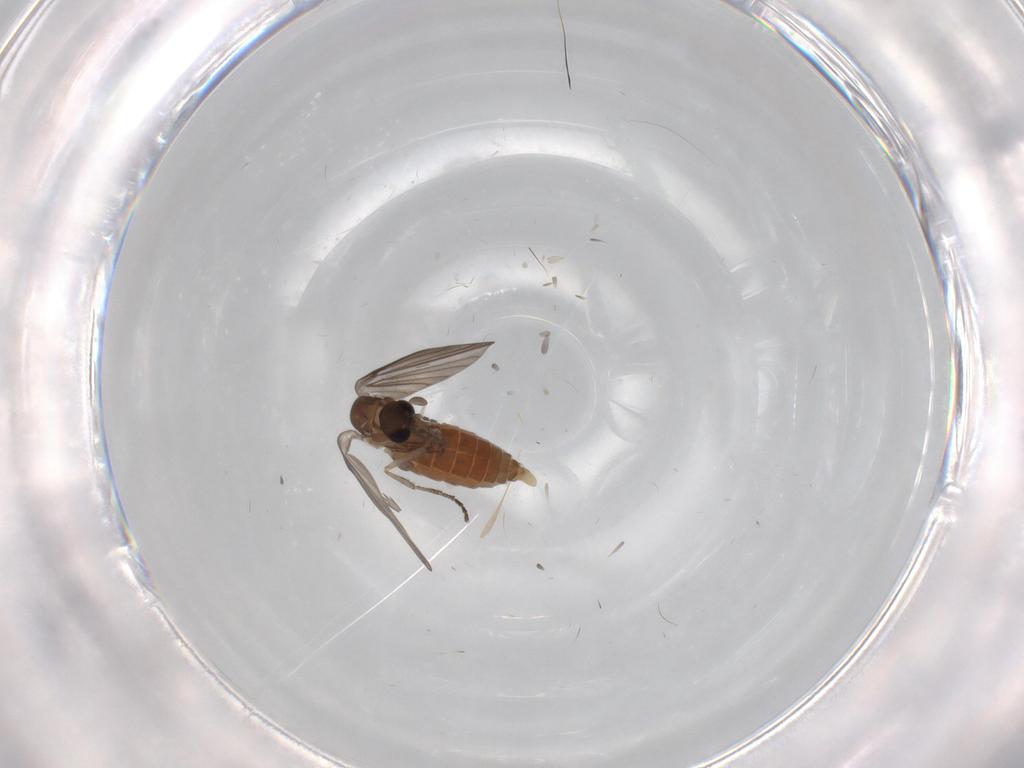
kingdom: Animalia
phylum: Arthropoda
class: Insecta
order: Diptera
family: Psychodidae
